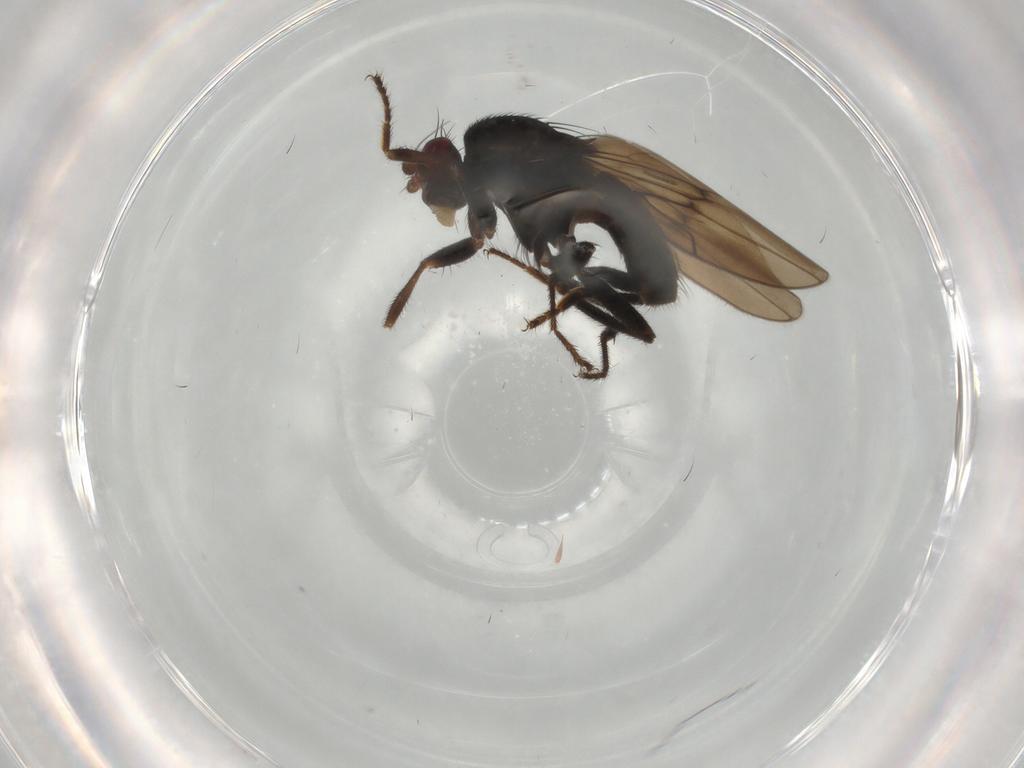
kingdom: Animalia
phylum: Arthropoda
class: Insecta
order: Diptera
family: Sphaeroceridae
